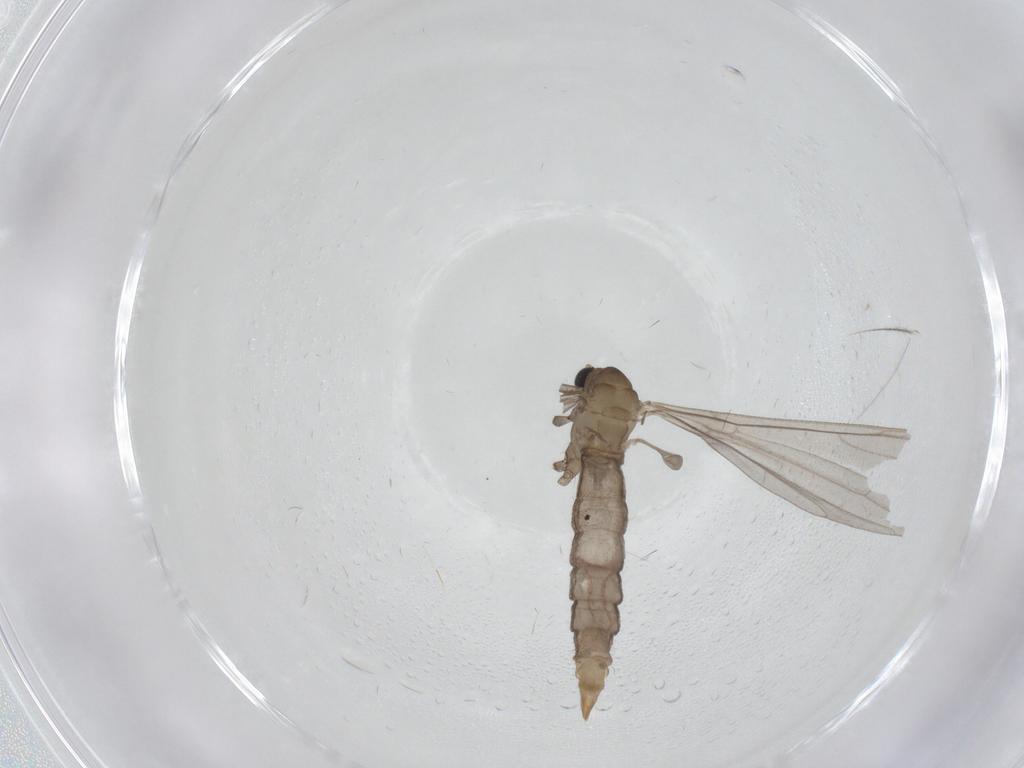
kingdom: Animalia
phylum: Arthropoda
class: Insecta
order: Diptera
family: Limoniidae
